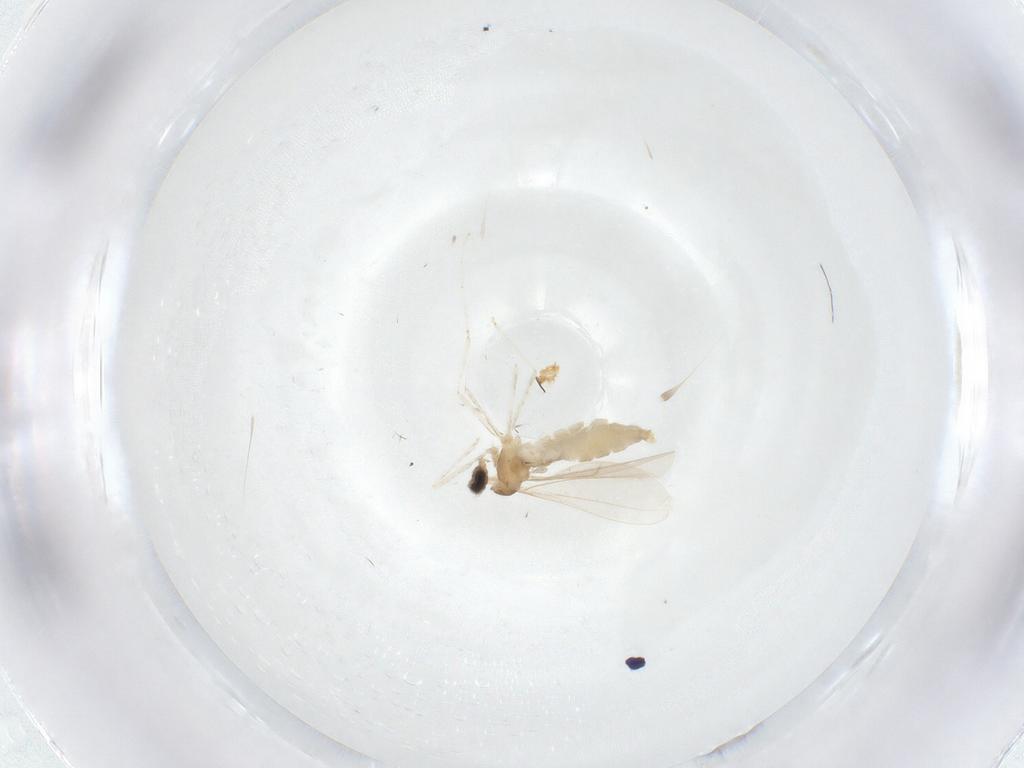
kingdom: Animalia
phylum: Arthropoda
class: Insecta
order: Diptera
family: Cecidomyiidae
